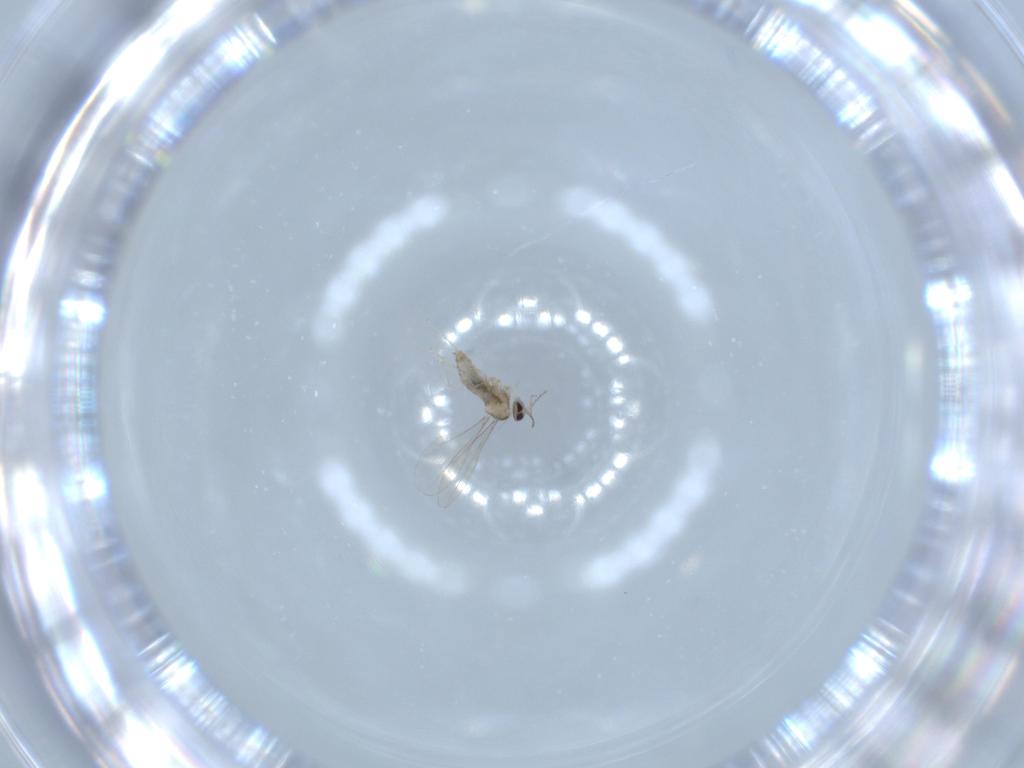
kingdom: Animalia
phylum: Arthropoda
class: Insecta
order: Diptera
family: Cecidomyiidae
